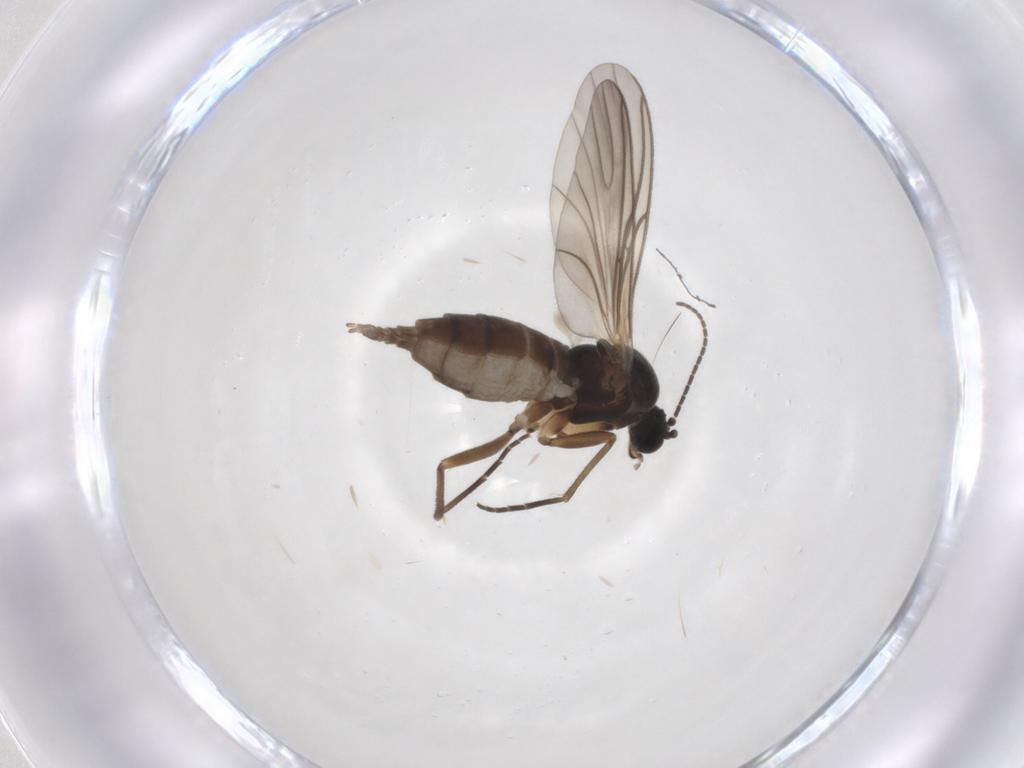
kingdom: Animalia
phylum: Arthropoda
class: Insecta
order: Diptera
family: Sciaridae
